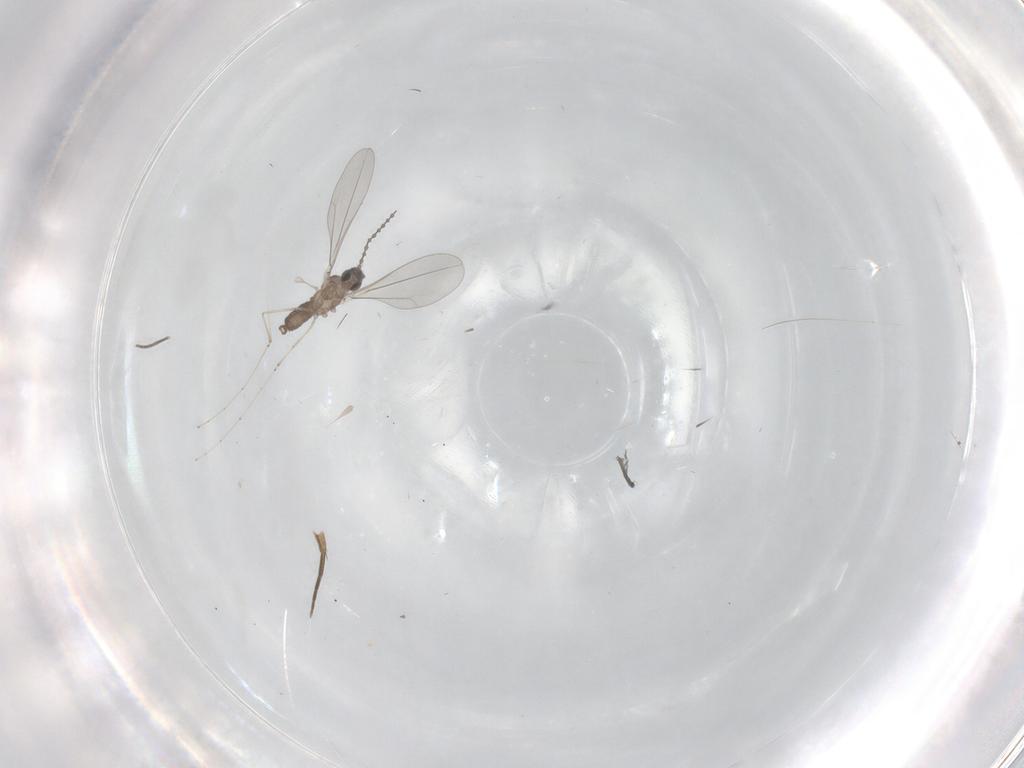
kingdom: Animalia
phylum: Arthropoda
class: Insecta
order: Diptera
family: Cecidomyiidae
